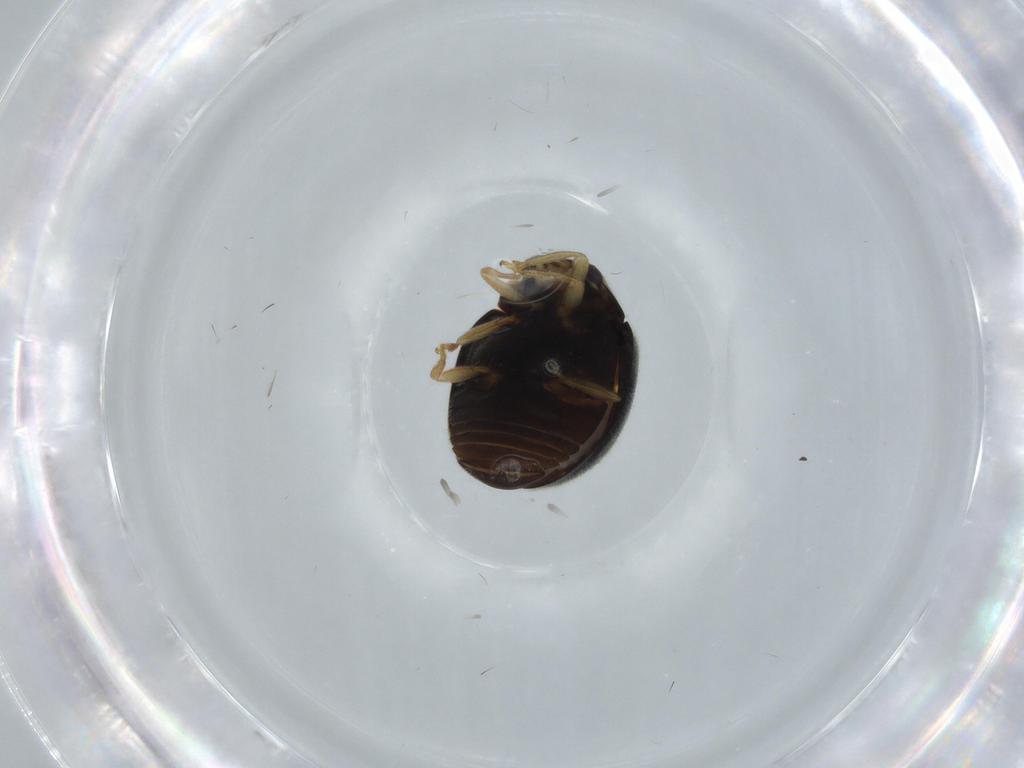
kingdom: Animalia
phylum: Arthropoda
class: Insecta
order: Coleoptera
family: Coccinellidae
